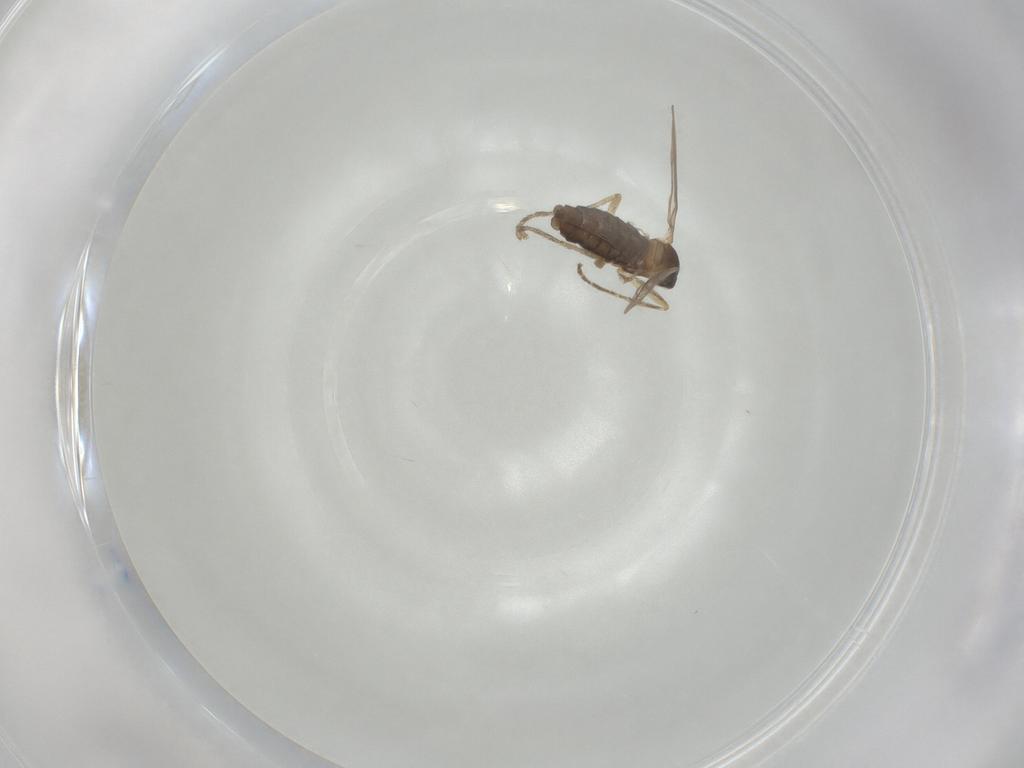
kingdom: Animalia
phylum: Arthropoda
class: Insecta
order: Diptera
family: Cecidomyiidae
